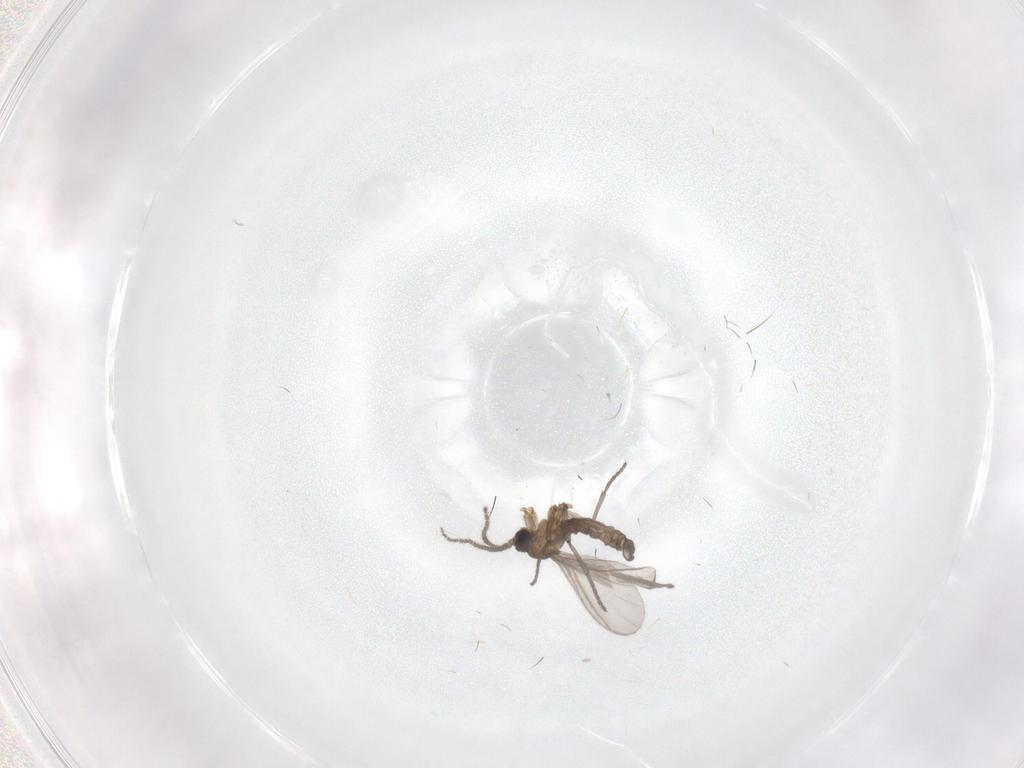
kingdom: Animalia
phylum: Arthropoda
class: Insecta
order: Diptera
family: Sciaridae
